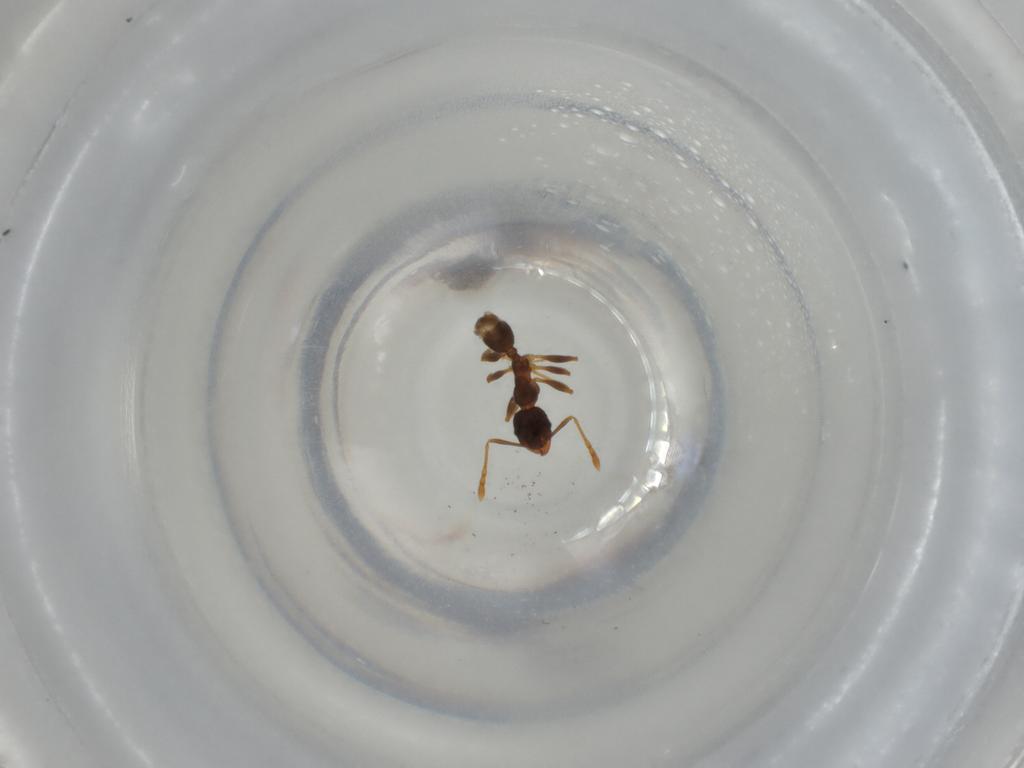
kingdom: Animalia
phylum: Arthropoda
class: Insecta
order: Hymenoptera
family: Formicidae
